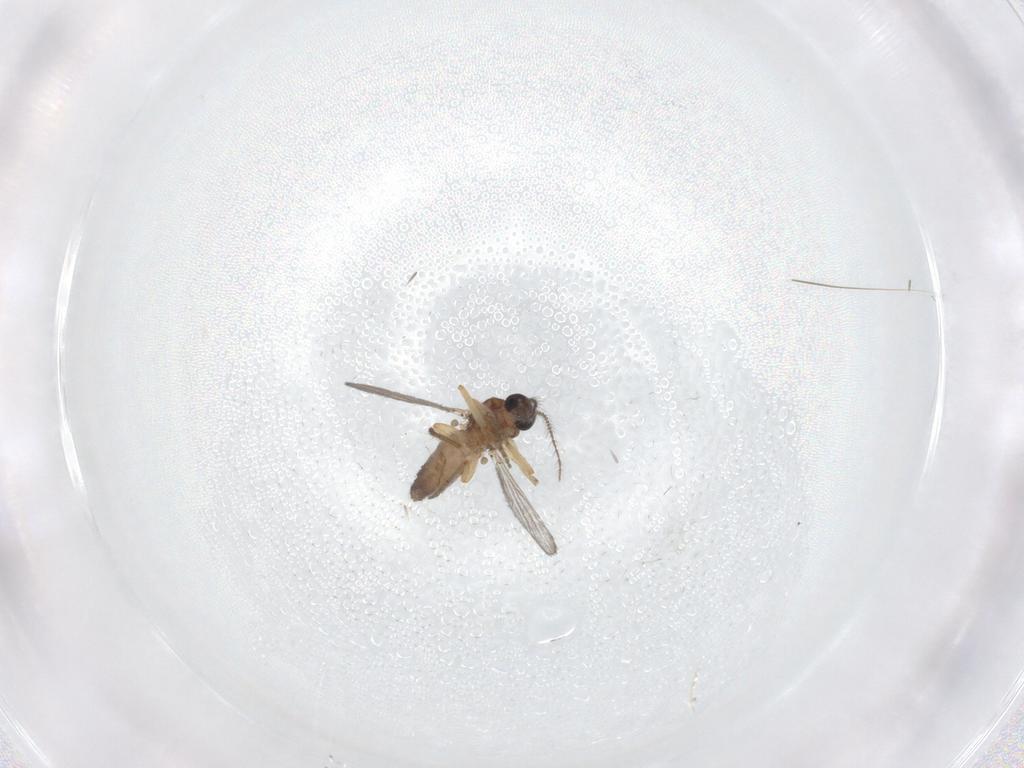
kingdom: Animalia
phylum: Arthropoda
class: Insecta
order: Diptera
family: Ceratopogonidae
